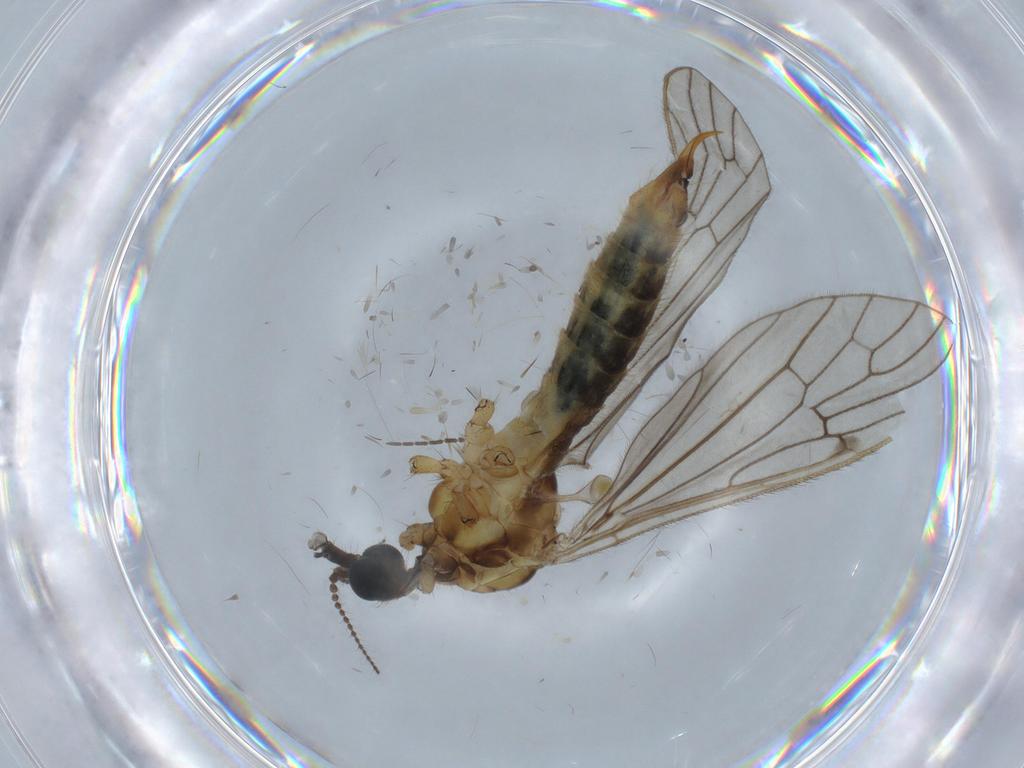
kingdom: Animalia
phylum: Arthropoda
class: Insecta
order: Diptera
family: Limoniidae
